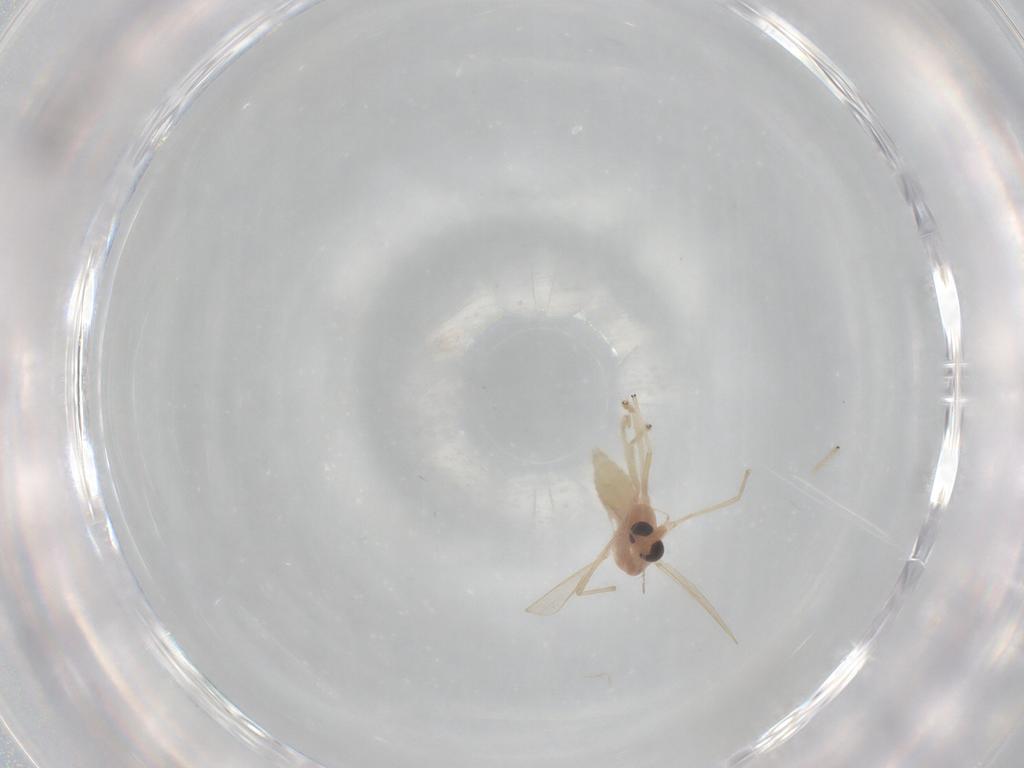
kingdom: Animalia
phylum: Arthropoda
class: Insecta
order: Diptera
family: Chironomidae
